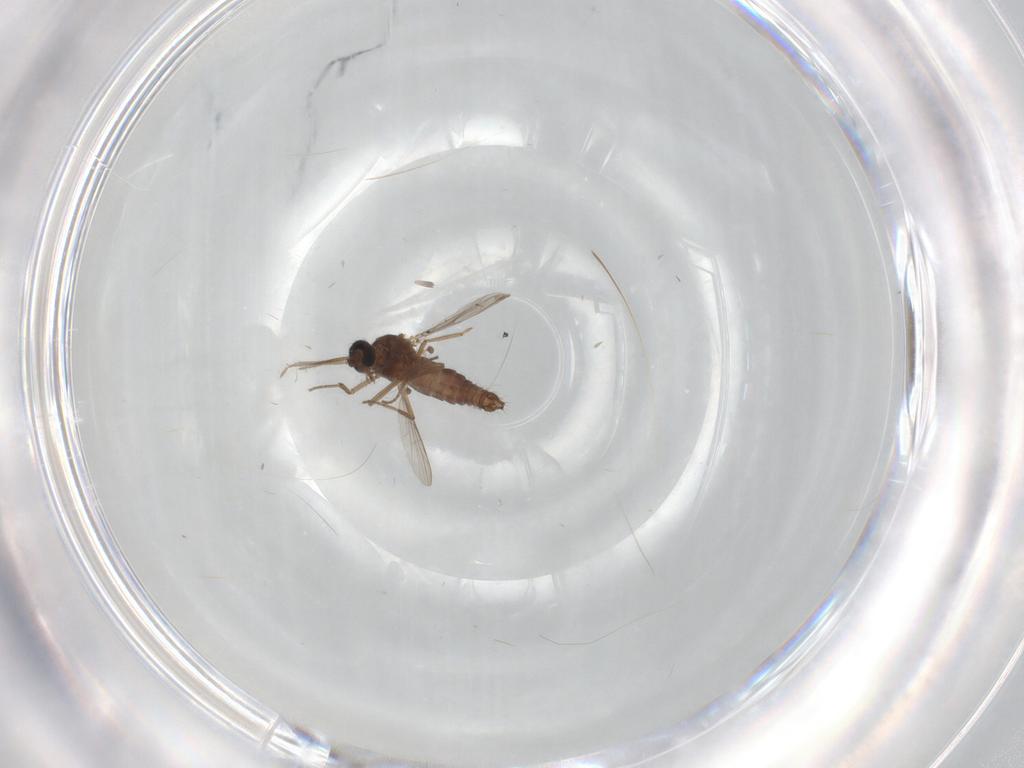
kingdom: Animalia
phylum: Arthropoda
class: Insecta
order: Diptera
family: Ceratopogonidae
